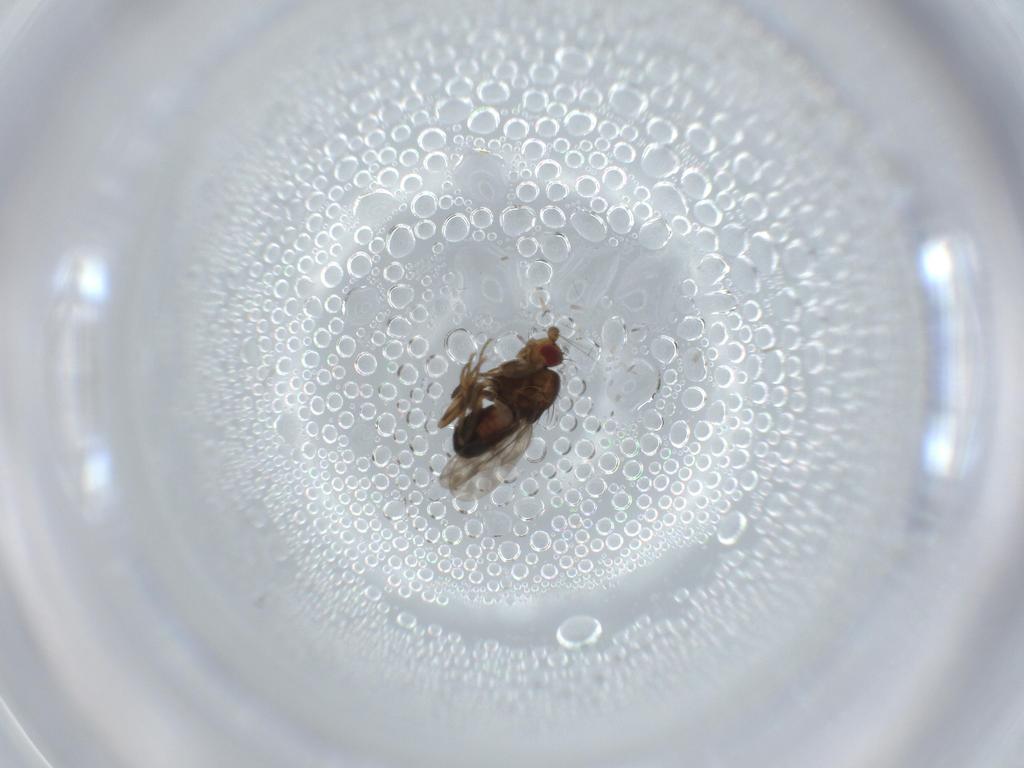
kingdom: Animalia
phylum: Arthropoda
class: Insecta
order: Diptera
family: Sphaeroceridae
